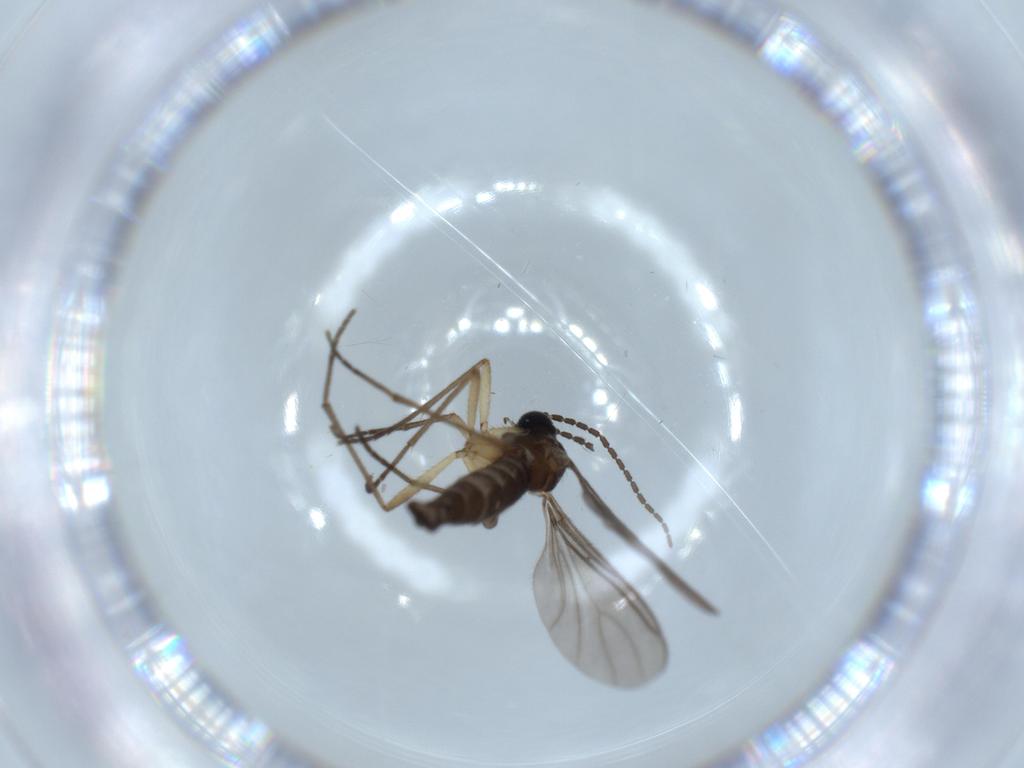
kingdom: Animalia
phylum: Arthropoda
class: Insecta
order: Diptera
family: Sciaridae
